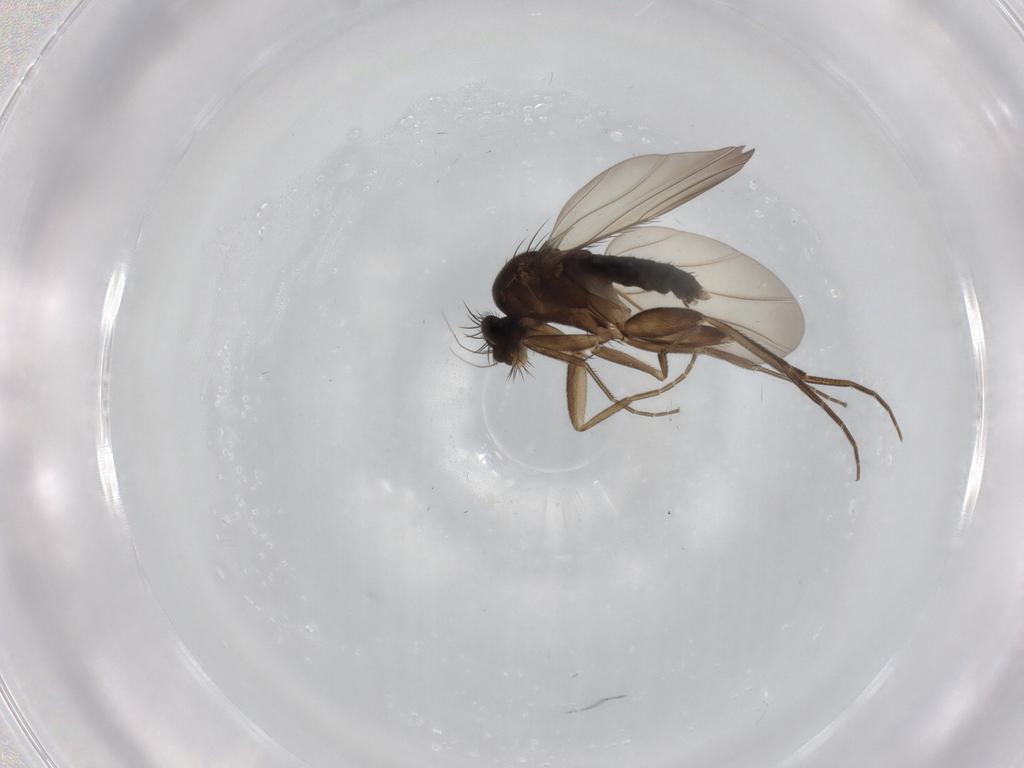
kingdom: Animalia
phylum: Arthropoda
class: Insecta
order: Diptera
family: Phoridae
